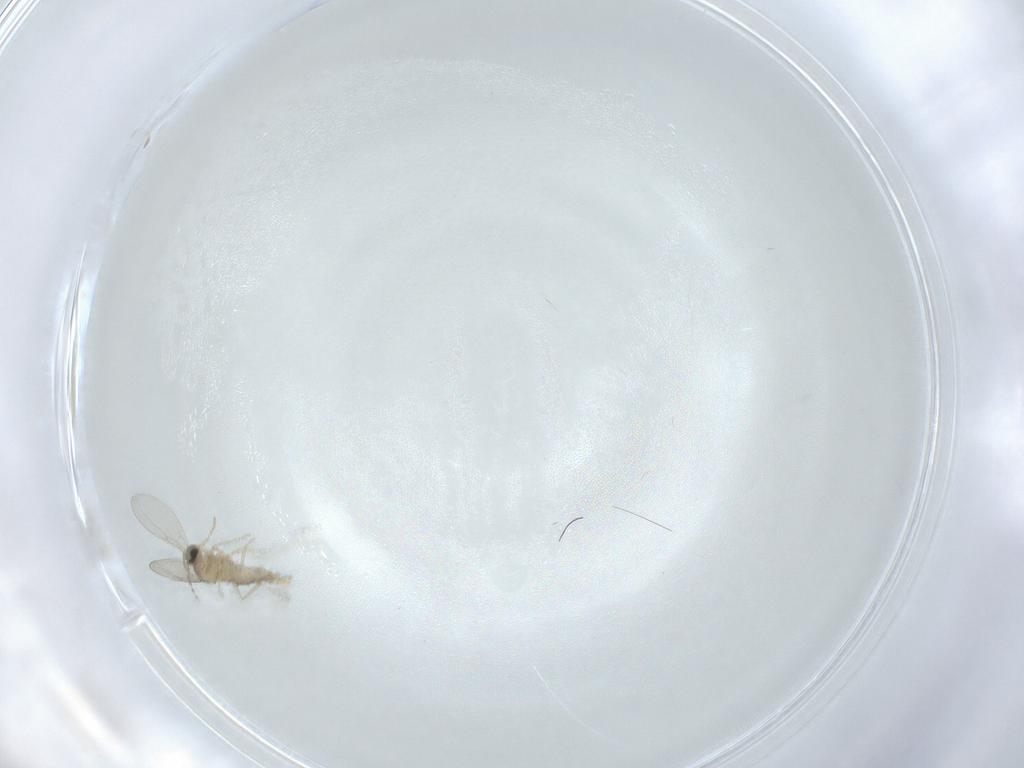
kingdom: Animalia
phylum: Arthropoda
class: Insecta
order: Diptera
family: Cecidomyiidae
